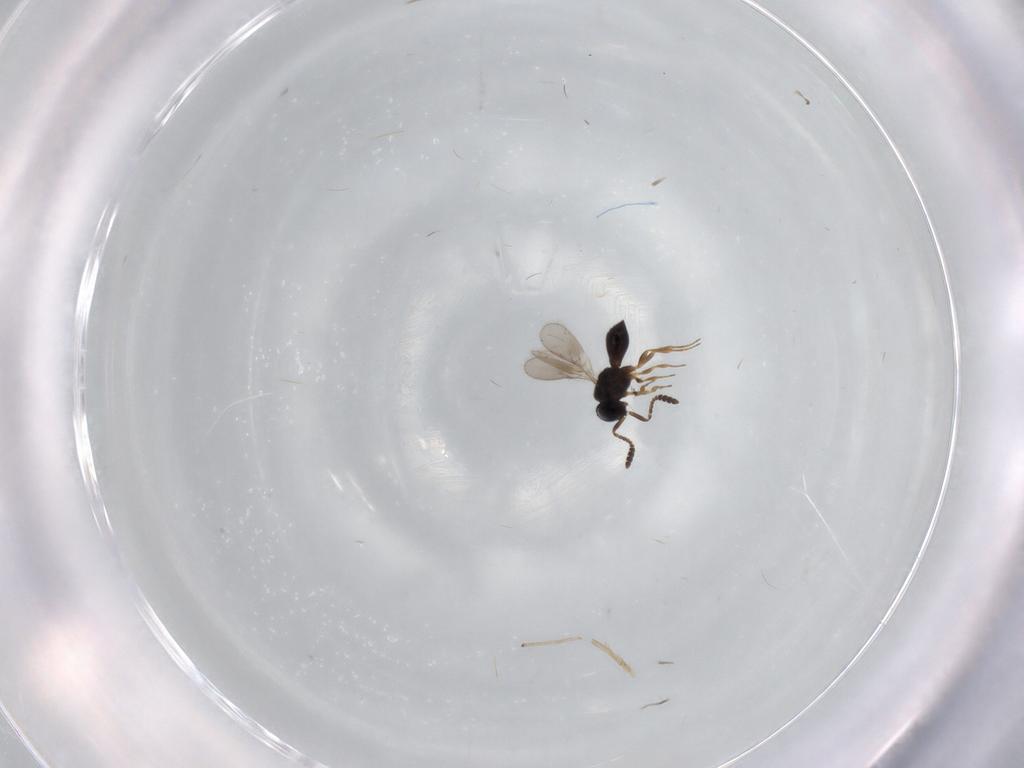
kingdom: Animalia
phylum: Arthropoda
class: Insecta
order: Hymenoptera
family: Scelionidae
